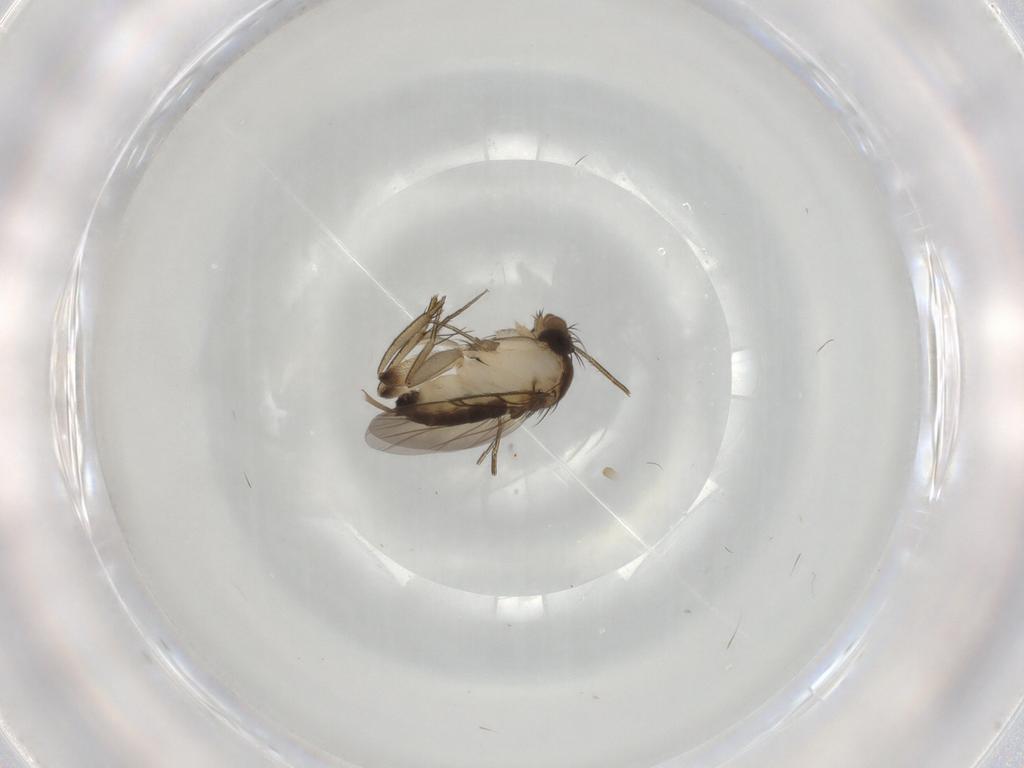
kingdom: Animalia
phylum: Arthropoda
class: Insecta
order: Diptera
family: Phoridae
